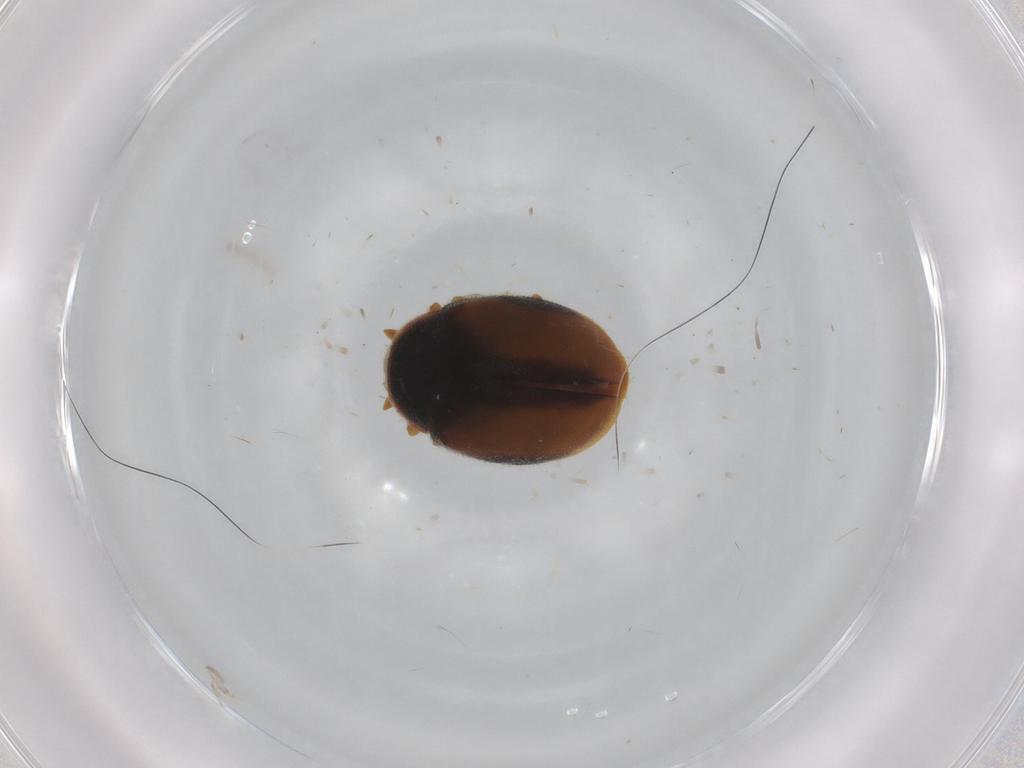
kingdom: Animalia
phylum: Arthropoda
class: Insecta
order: Coleoptera
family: Coccinellidae
